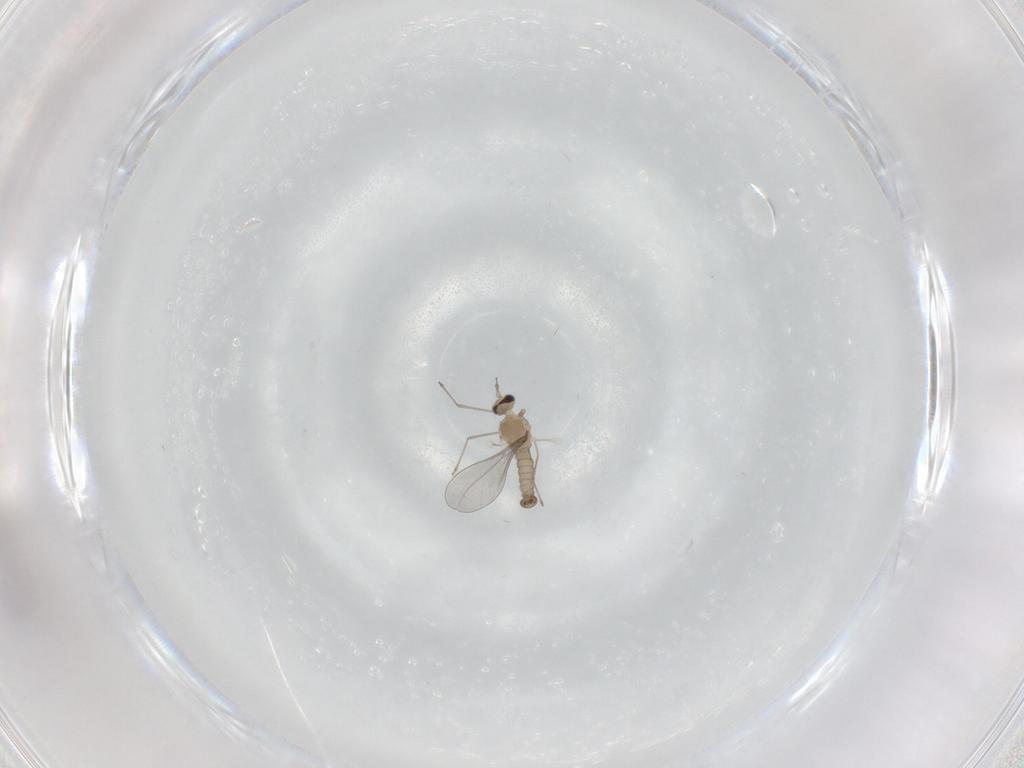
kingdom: Animalia
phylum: Arthropoda
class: Insecta
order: Diptera
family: Cecidomyiidae
